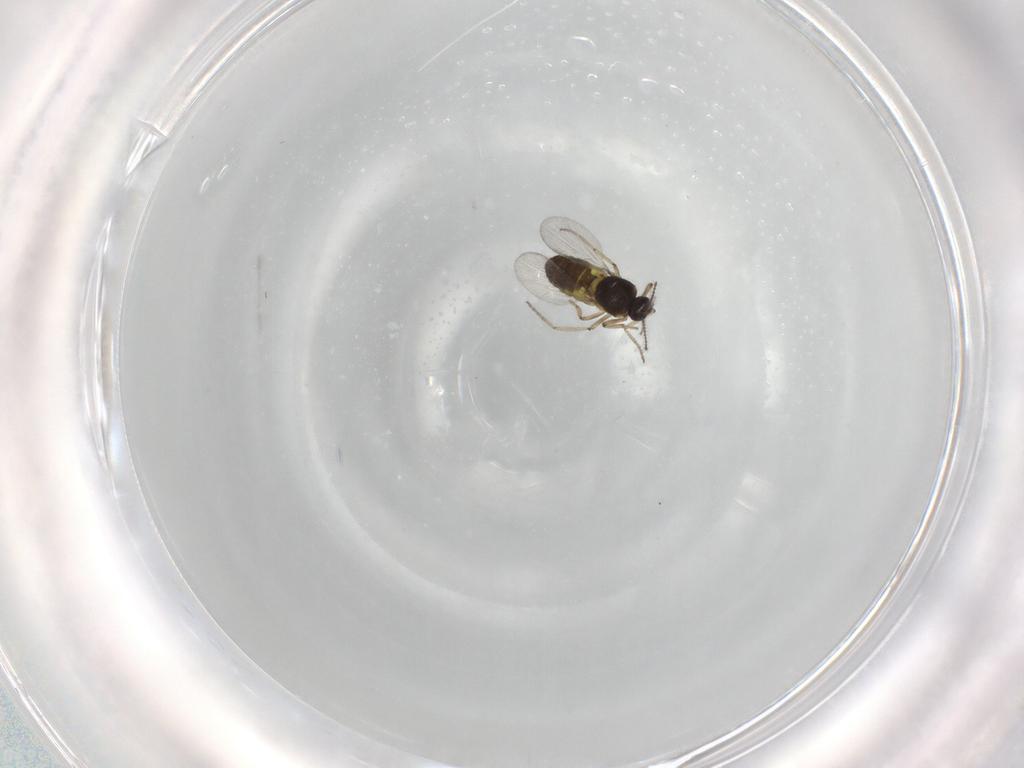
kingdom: Animalia
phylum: Arthropoda
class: Insecta
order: Diptera
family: Ceratopogonidae
